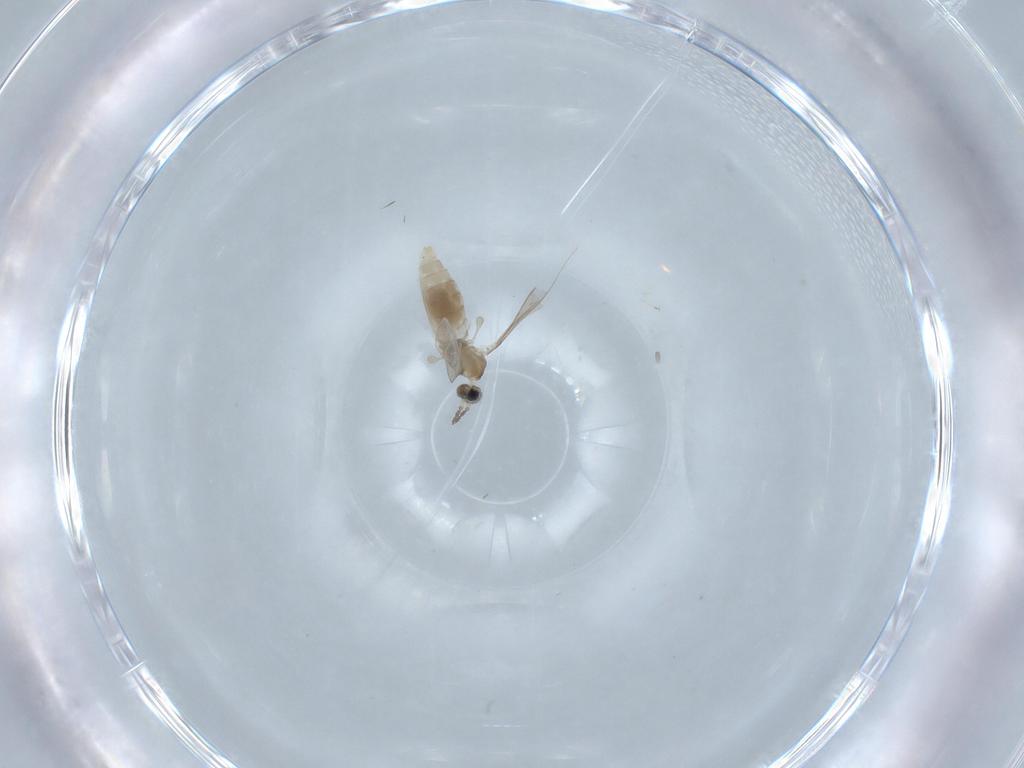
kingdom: Animalia
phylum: Arthropoda
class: Insecta
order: Diptera
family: Cecidomyiidae
